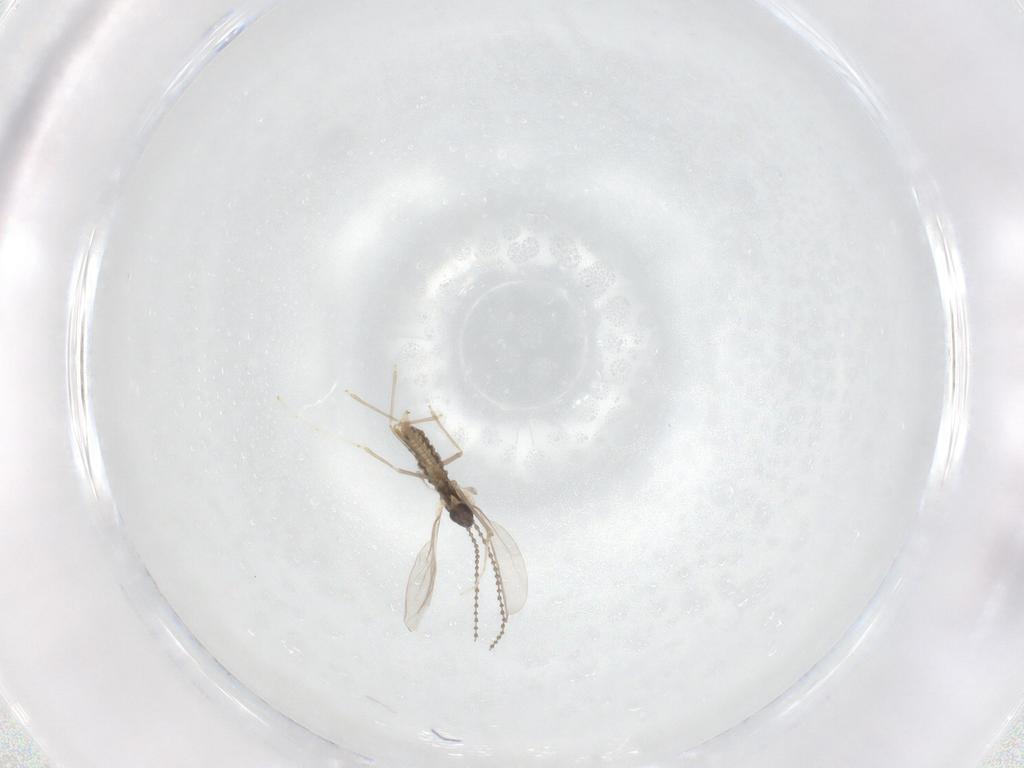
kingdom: Animalia
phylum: Arthropoda
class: Insecta
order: Diptera
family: Cecidomyiidae
